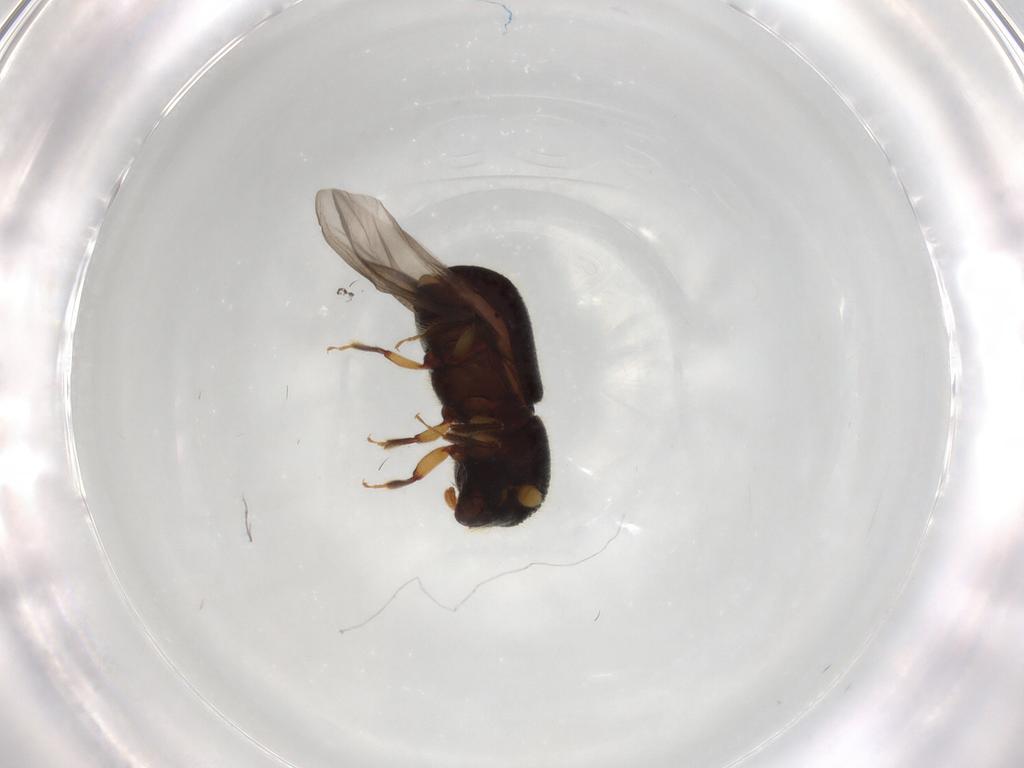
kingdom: Animalia
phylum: Arthropoda
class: Insecta
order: Coleoptera
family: Curculionidae
